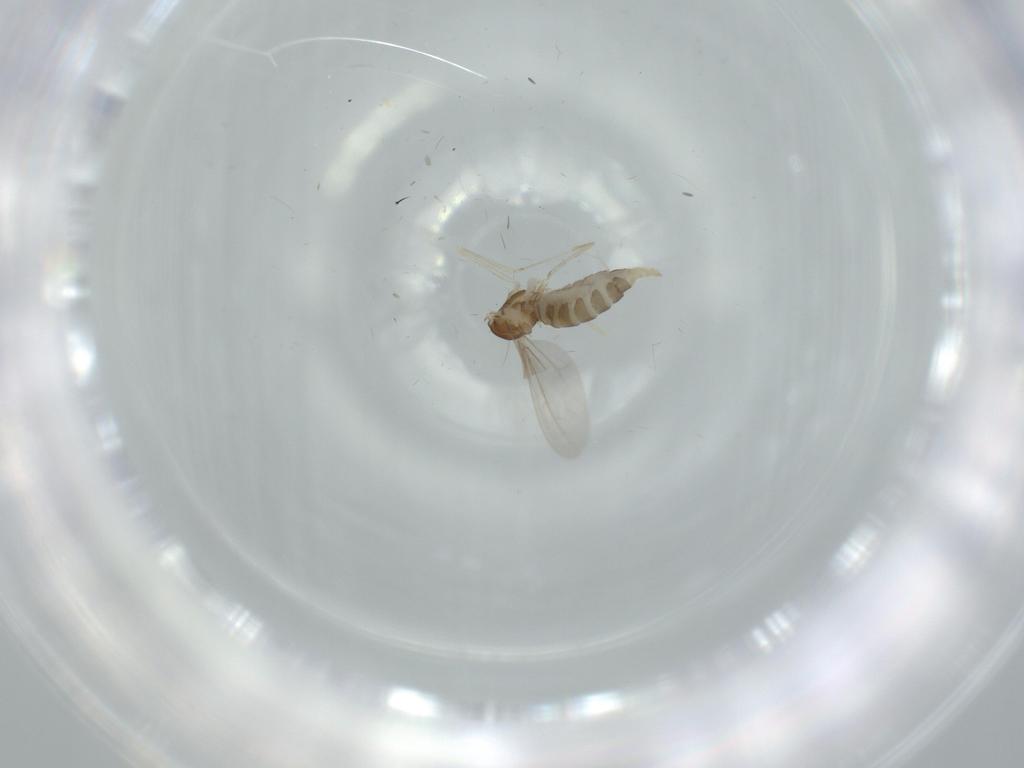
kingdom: Animalia
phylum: Arthropoda
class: Insecta
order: Diptera
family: Cecidomyiidae
